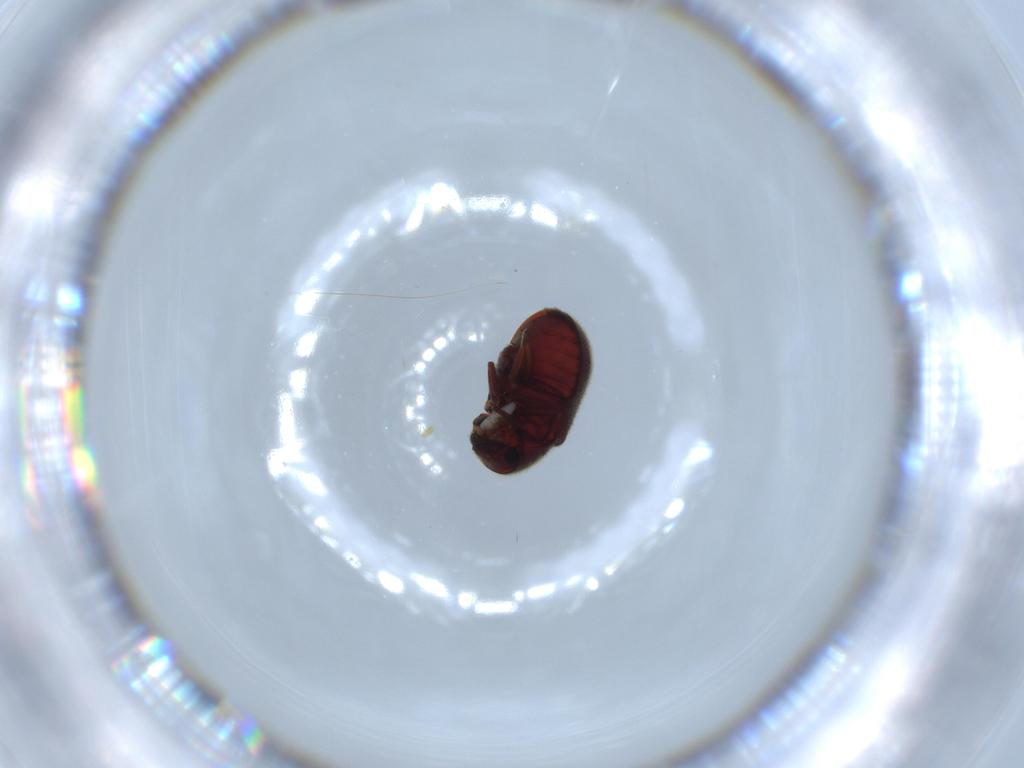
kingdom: Animalia
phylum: Arthropoda
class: Insecta
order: Coleoptera
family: Ptinidae
